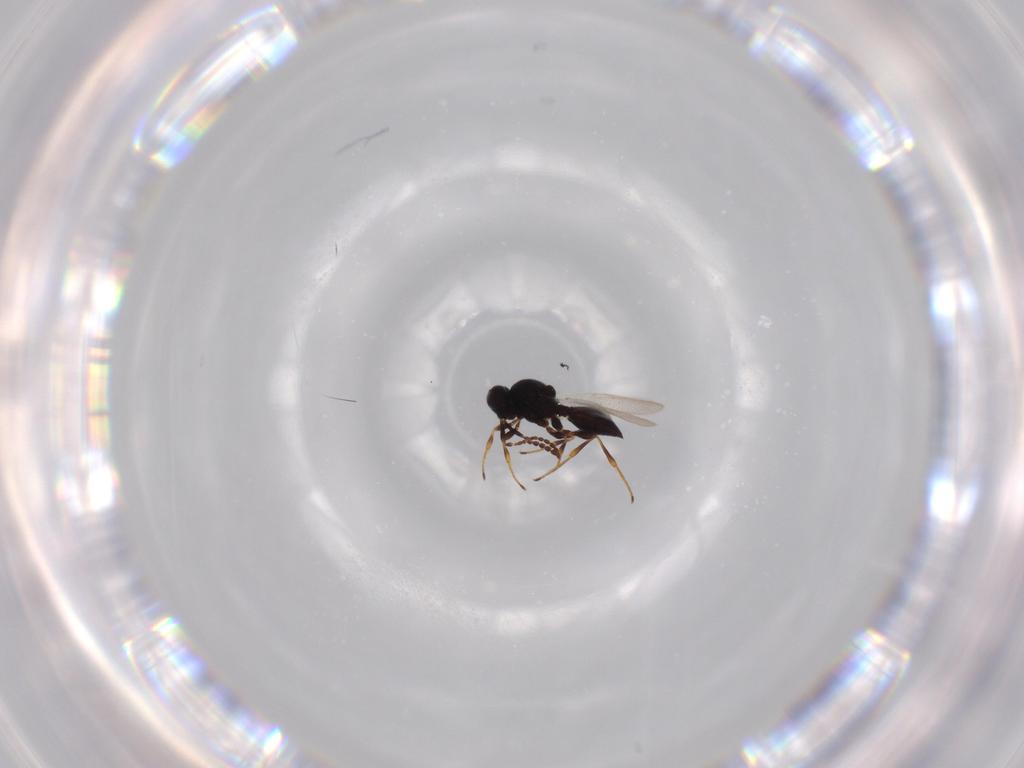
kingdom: Animalia
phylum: Arthropoda
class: Insecta
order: Hymenoptera
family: Platygastridae
